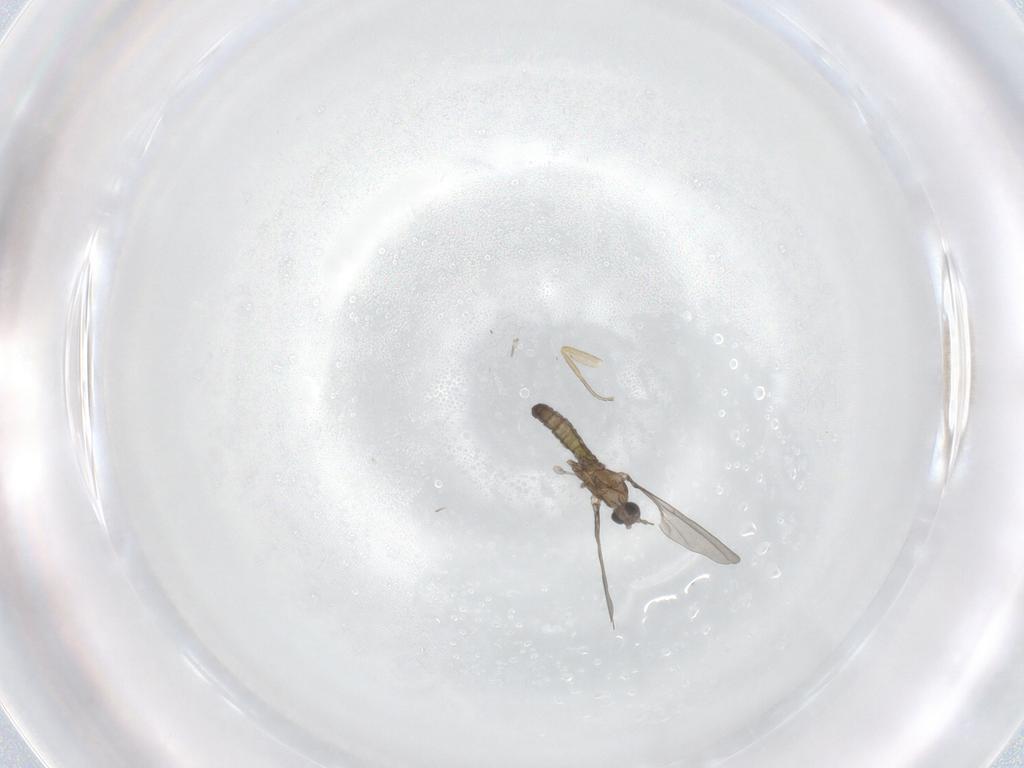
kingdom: Animalia
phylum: Arthropoda
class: Insecta
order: Diptera
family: Phoridae
